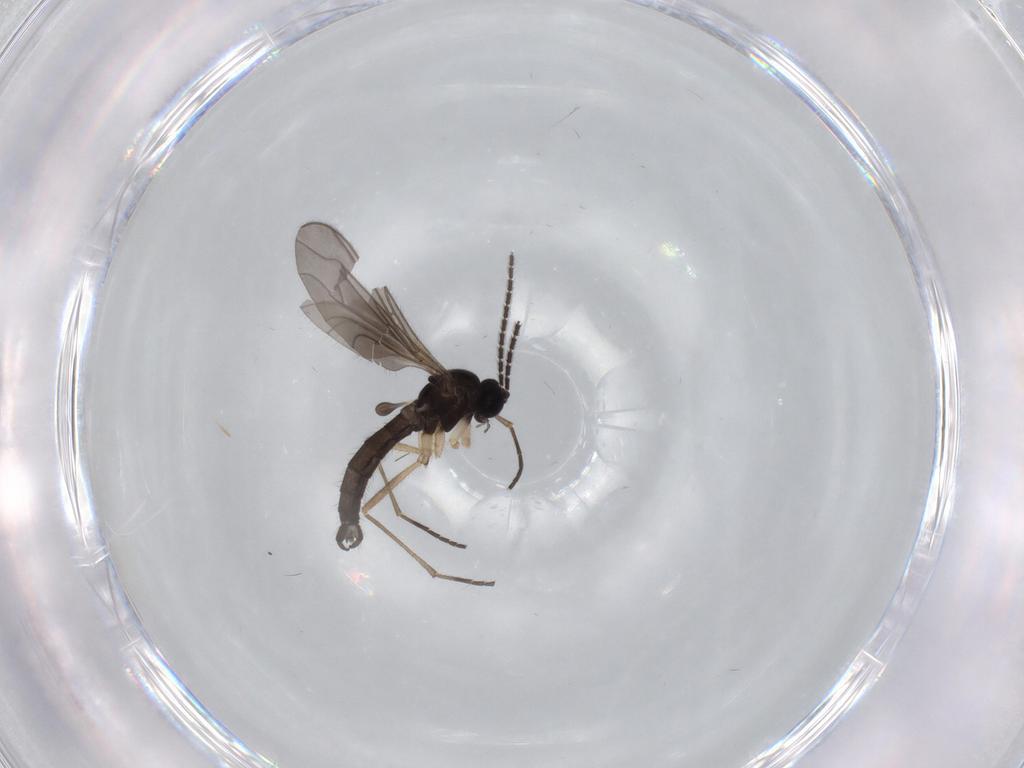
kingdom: Animalia
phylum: Arthropoda
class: Insecta
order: Diptera
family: Sciaridae
